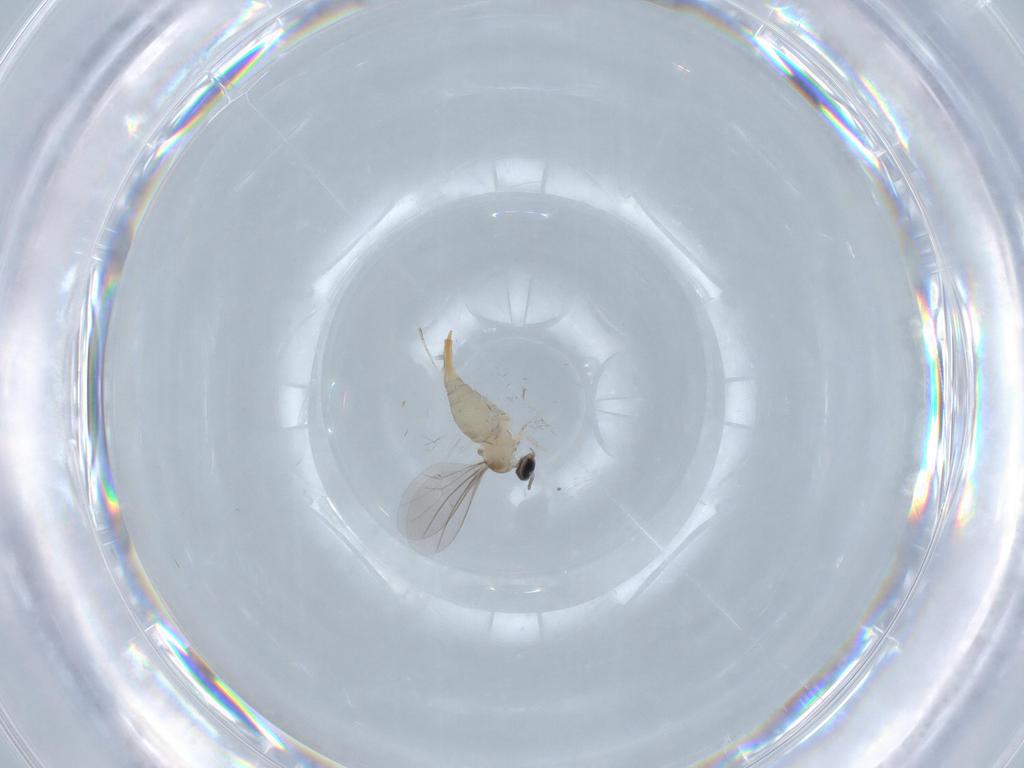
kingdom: Animalia
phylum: Arthropoda
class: Insecta
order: Diptera
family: Cecidomyiidae
